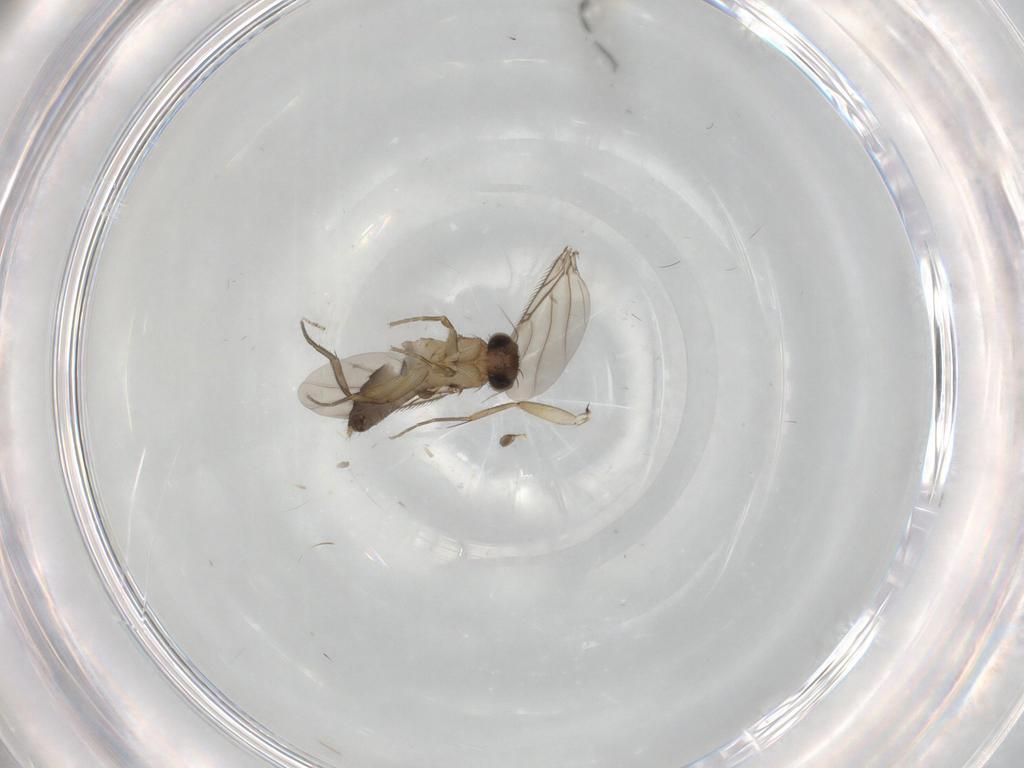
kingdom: Animalia
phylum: Arthropoda
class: Insecta
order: Diptera
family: Phoridae
